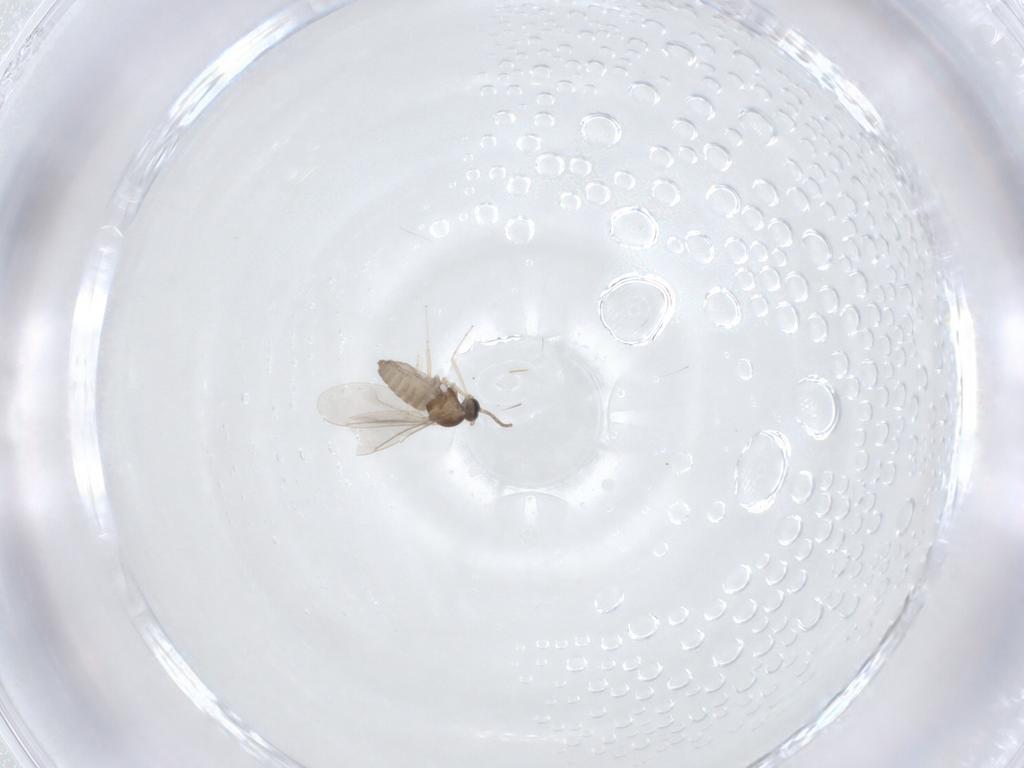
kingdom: Animalia
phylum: Arthropoda
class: Insecta
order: Diptera
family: Cecidomyiidae
